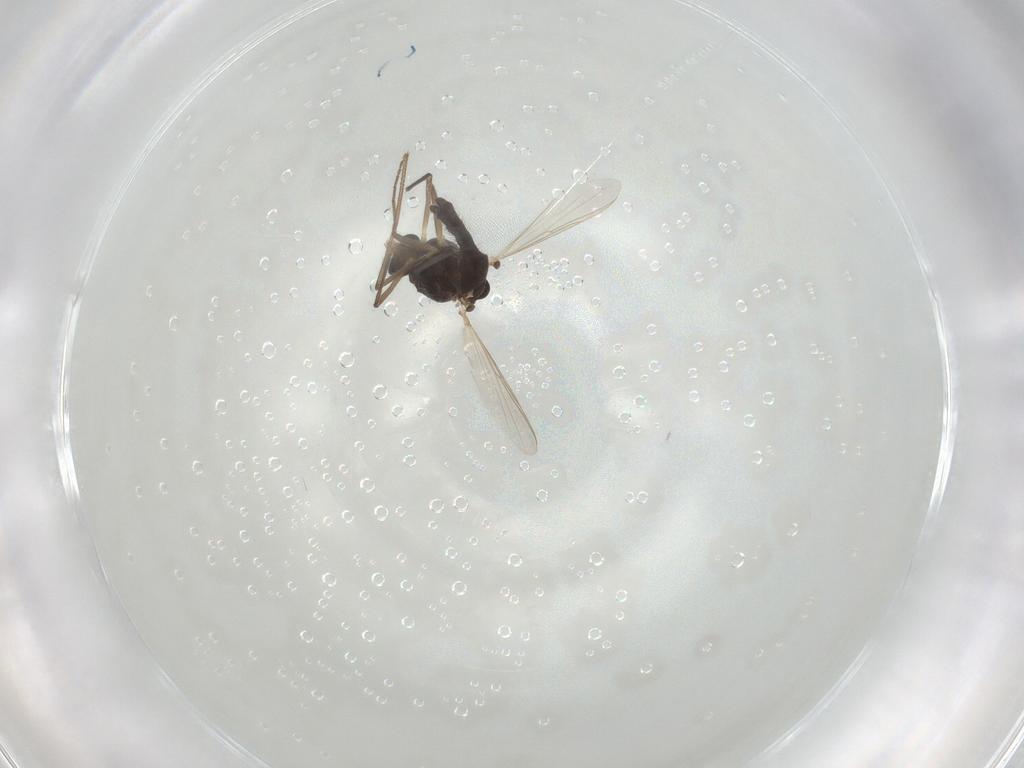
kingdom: Animalia
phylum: Arthropoda
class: Insecta
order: Diptera
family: Chironomidae
